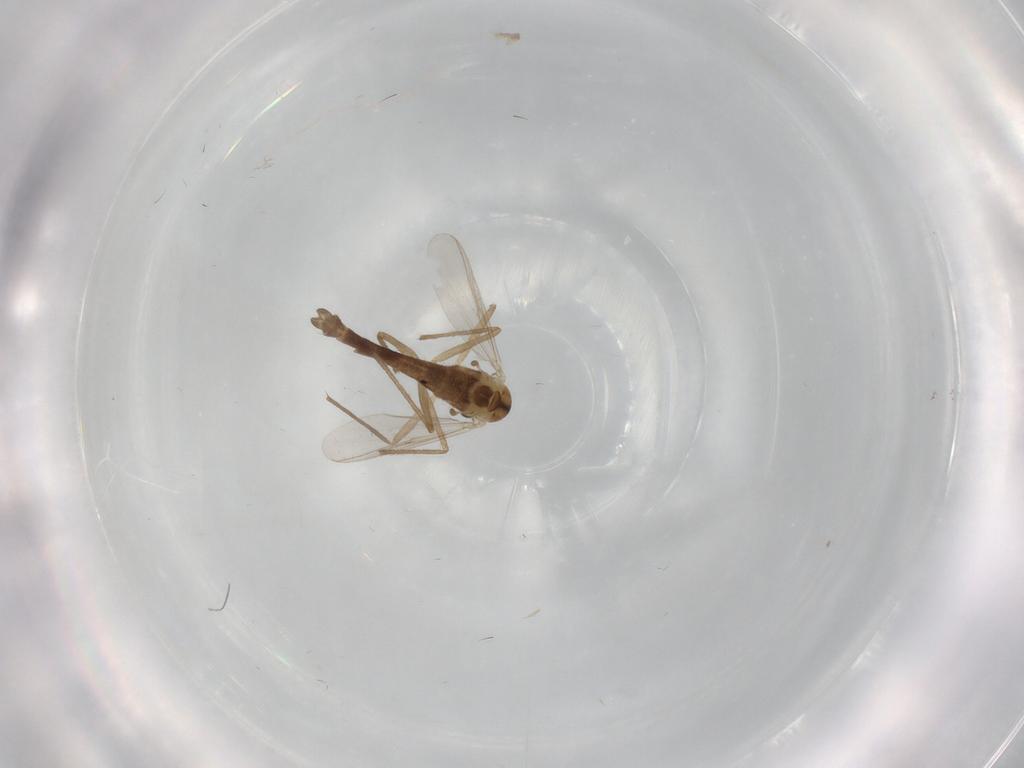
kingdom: Animalia
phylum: Arthropoda
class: Insecta
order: Diptera
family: Chironomidae
